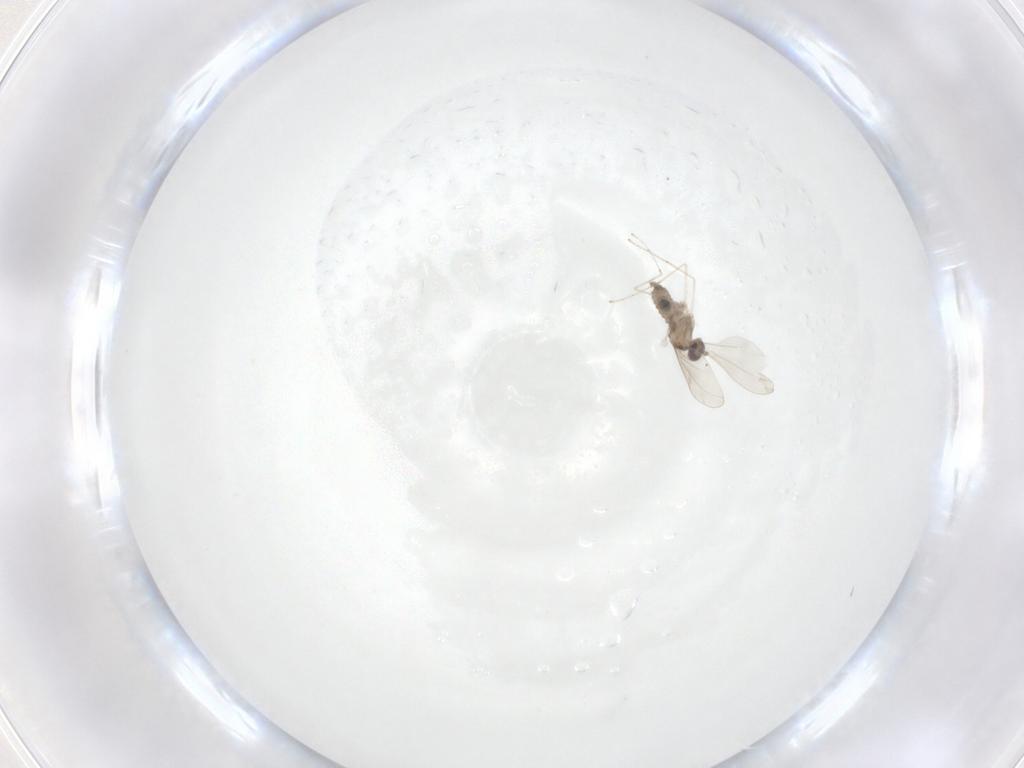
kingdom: Animalia
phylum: Arthropoda
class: Insecta
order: Diptera
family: Cecidomyiidae
